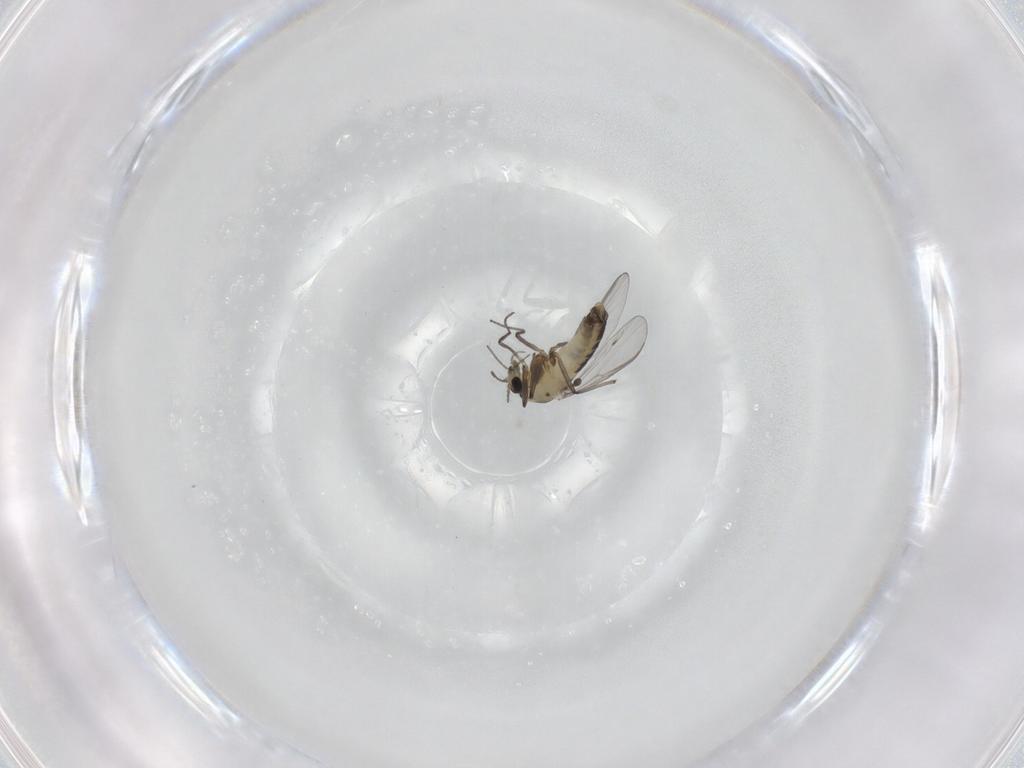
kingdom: Animalia
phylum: Arthropoda
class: Insecta
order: Diptera
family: Chironomidae
